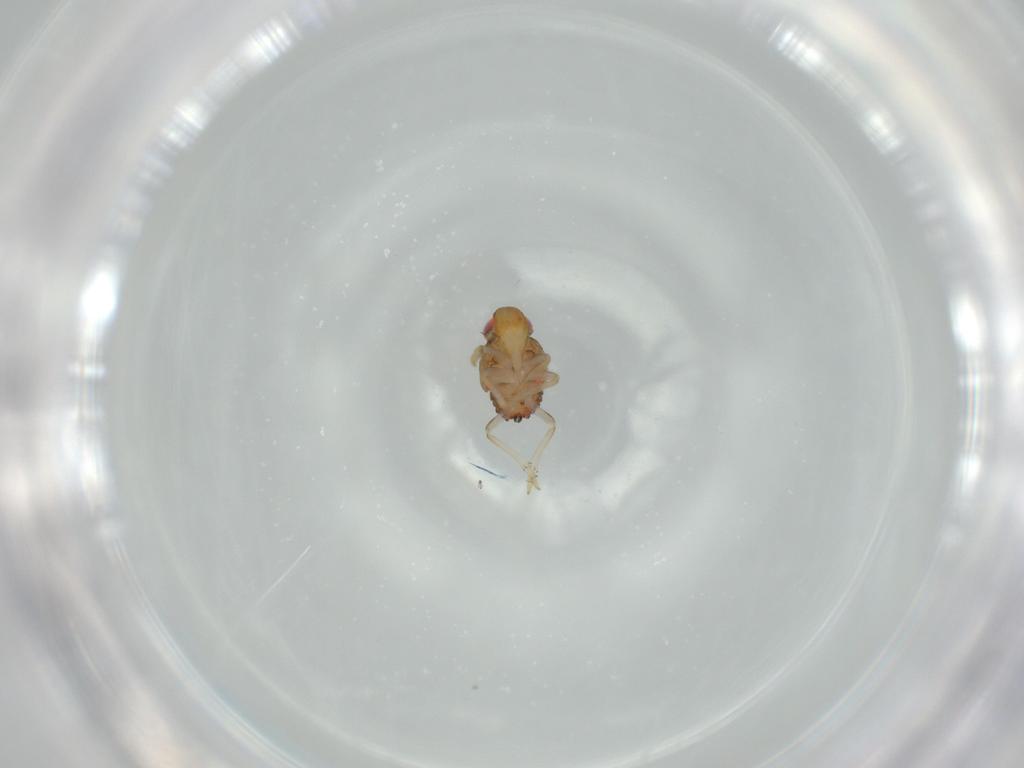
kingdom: Animalia
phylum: Arthropoda
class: Insecta
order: Hemiptera
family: Issidae
